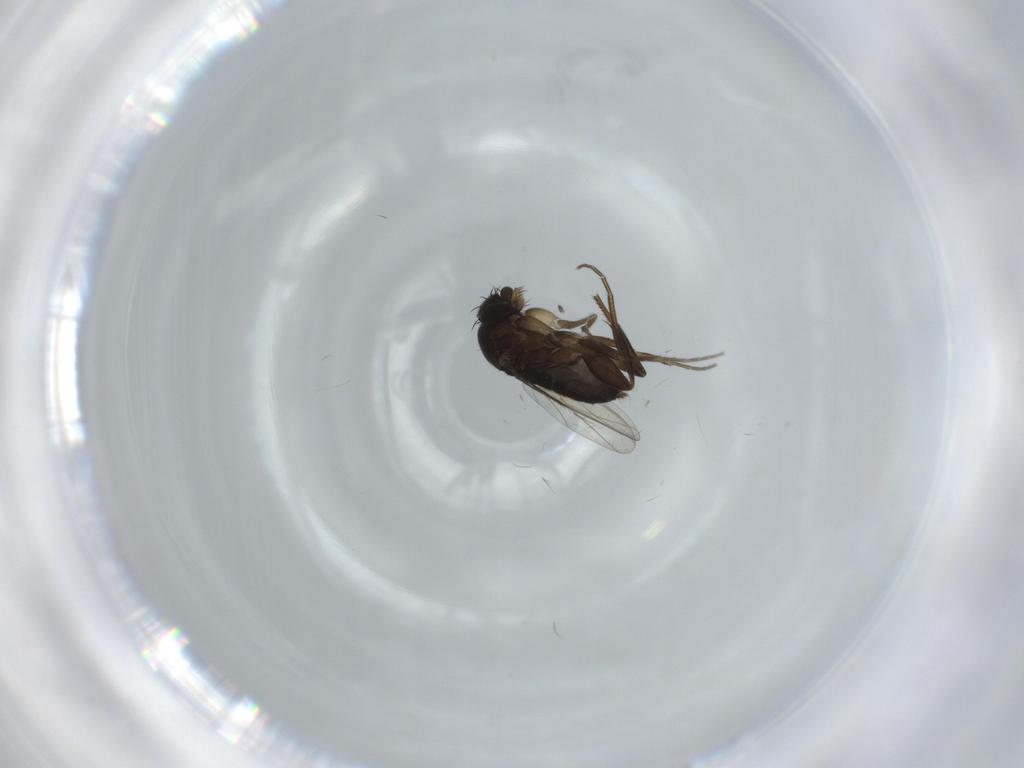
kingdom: Animalia
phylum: Arthropoda
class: Insecta
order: Diptera
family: Phoridae
